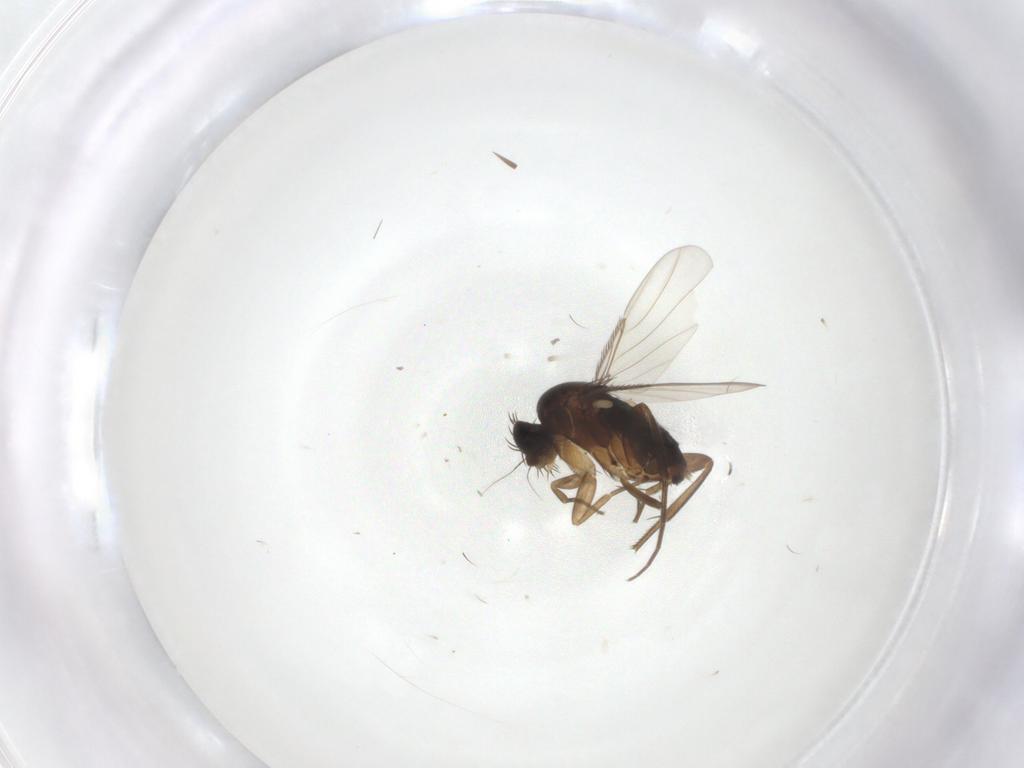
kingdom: Animalia
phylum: Arthropoda
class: Insecta
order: Diptera
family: Phoridae
